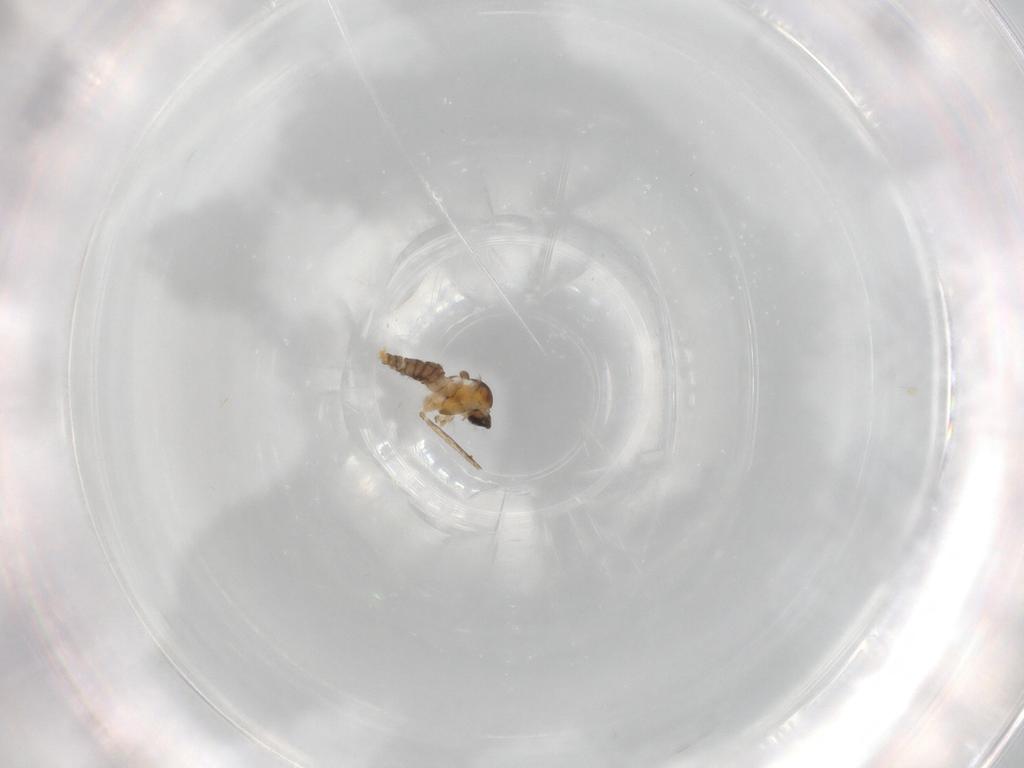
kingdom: Animalia
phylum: Arthropoda
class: Insecta
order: Diptera
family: Cecidomyiidae
